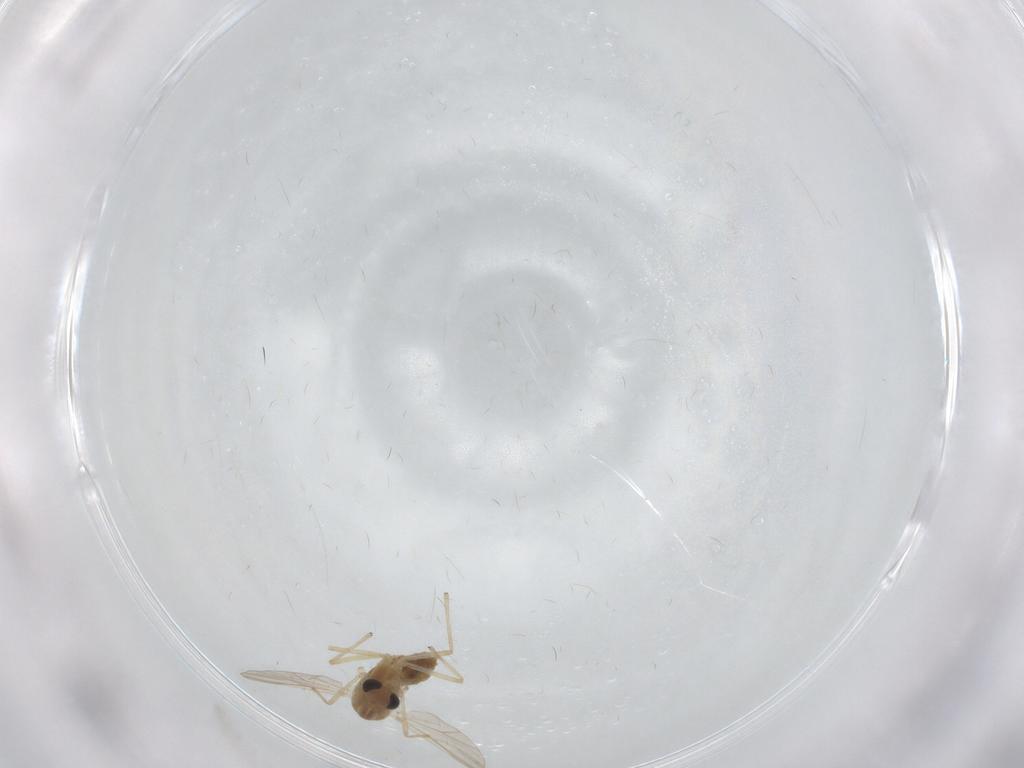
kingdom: Animalia
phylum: Arthropoda
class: Insecta
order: Diptera
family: Chironomidae
